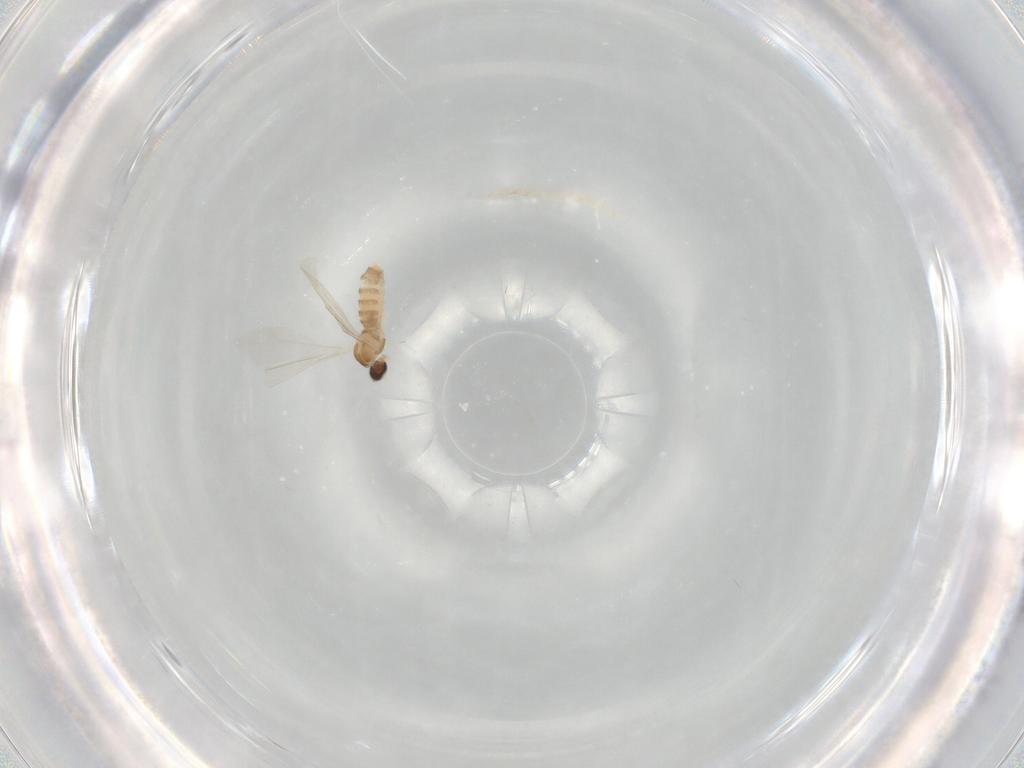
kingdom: Animalia
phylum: Arthropoda
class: Insecta
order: Diptera
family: Cecidomyiidae
